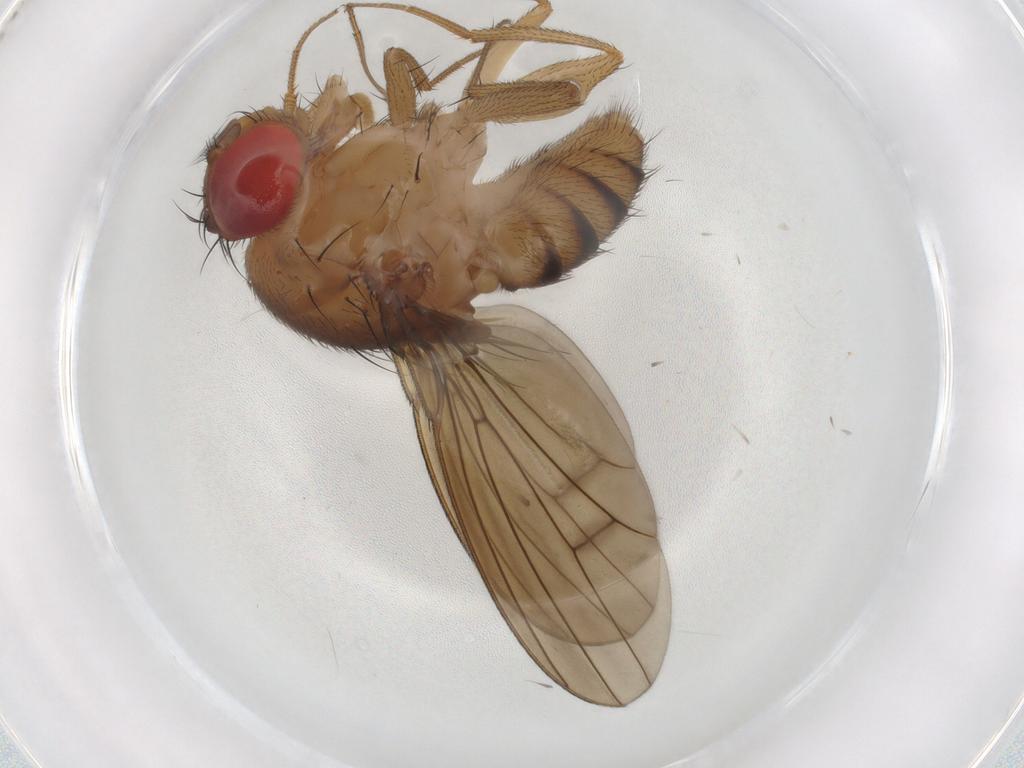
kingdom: Animalia
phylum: Arthropoda
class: Insecta
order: Diptera
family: Drosophilidae
